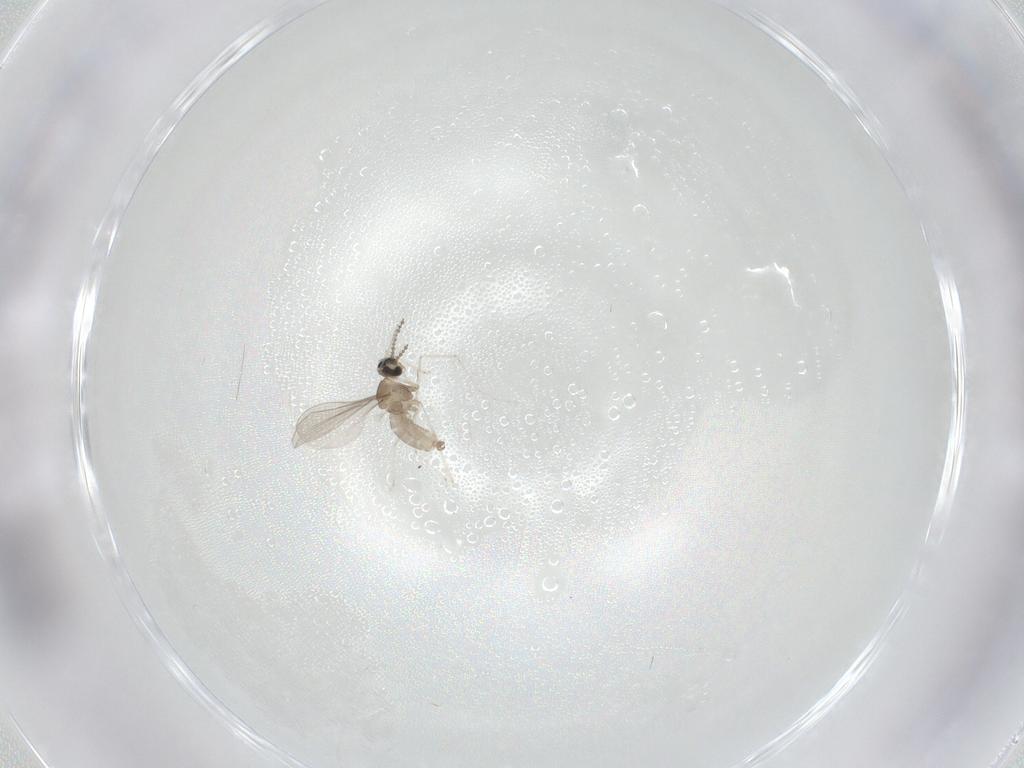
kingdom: Animalia
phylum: Arthropoda
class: Insecta
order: Diptera
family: Cecidomyiidae
